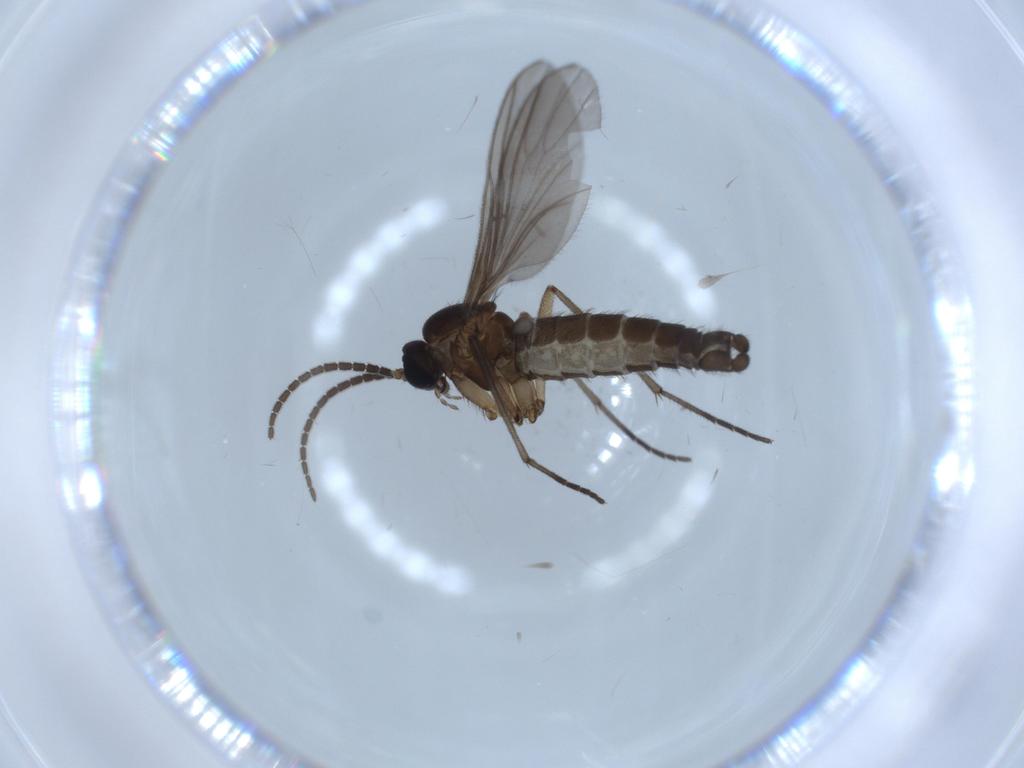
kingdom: Animalia
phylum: Arthropoda
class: Insecta
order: Diptera
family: Sciaridae
